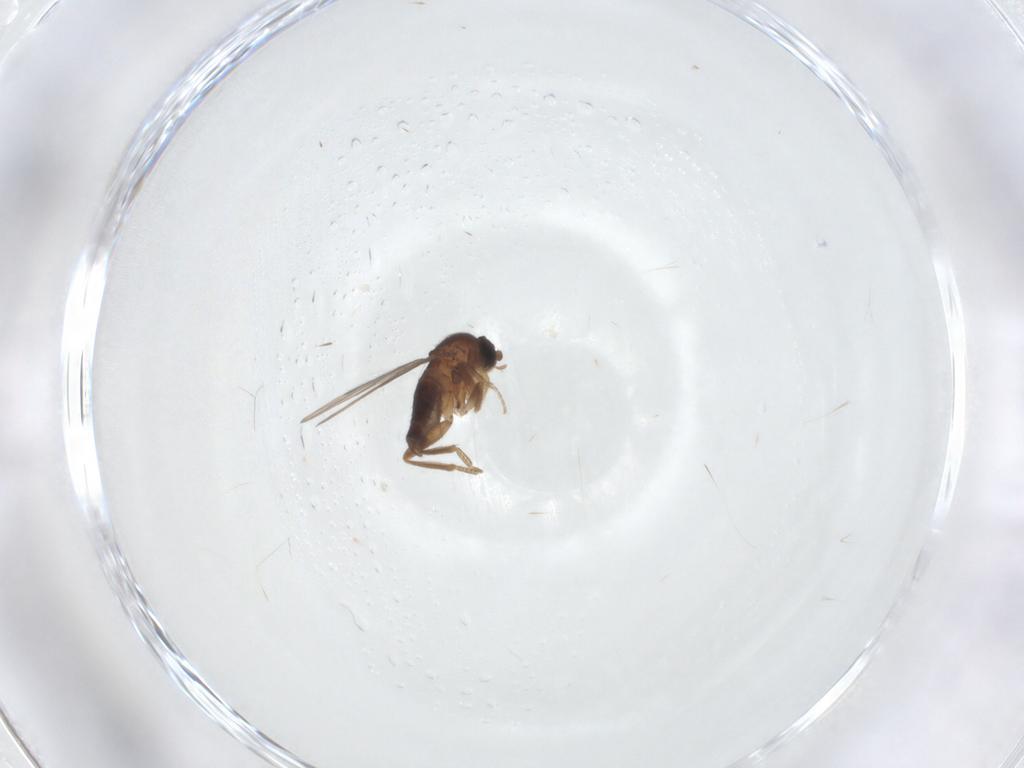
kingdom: Animalia
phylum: Arthropoda
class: Insecta
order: Diptera
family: Phoridae
